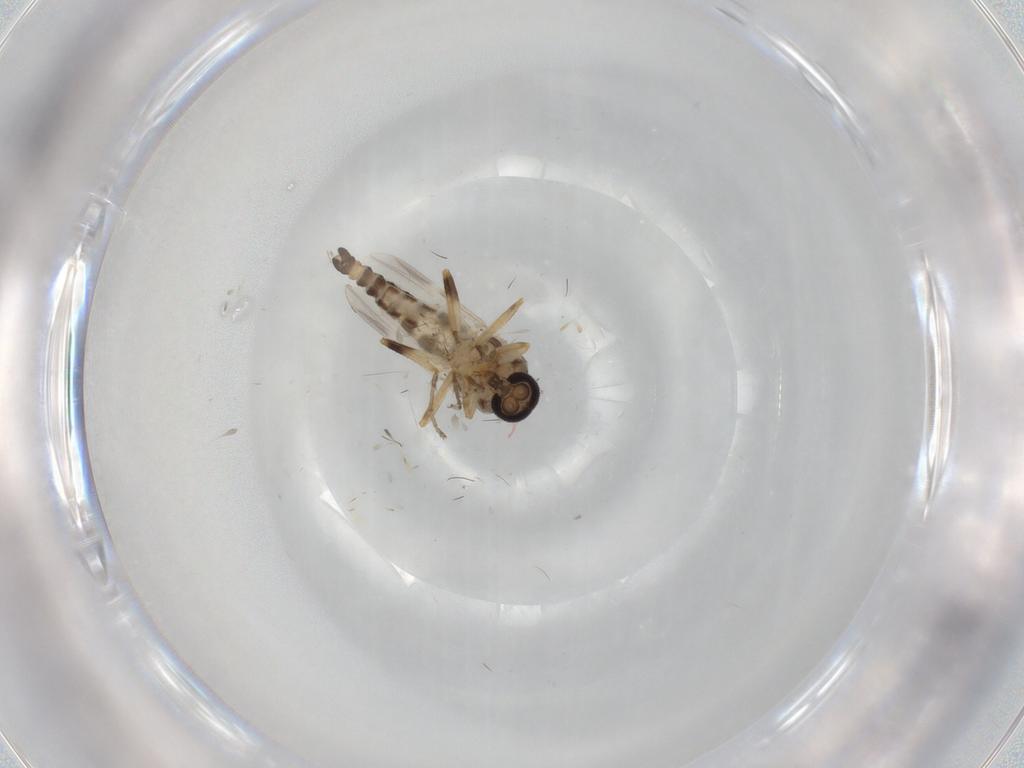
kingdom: Animalia
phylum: Arthropoda
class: Insecta
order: Diptera
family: Ceratopogonidae
